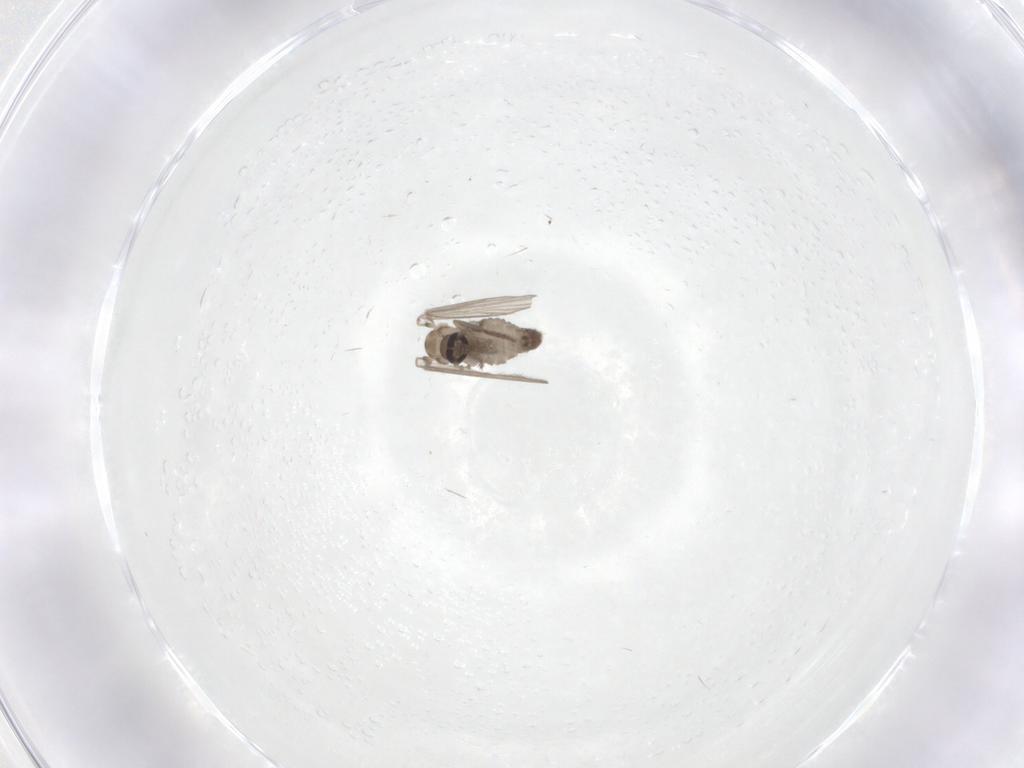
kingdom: Animalia
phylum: Arthropoda
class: Insecta
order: Diptera
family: Psychodidae
